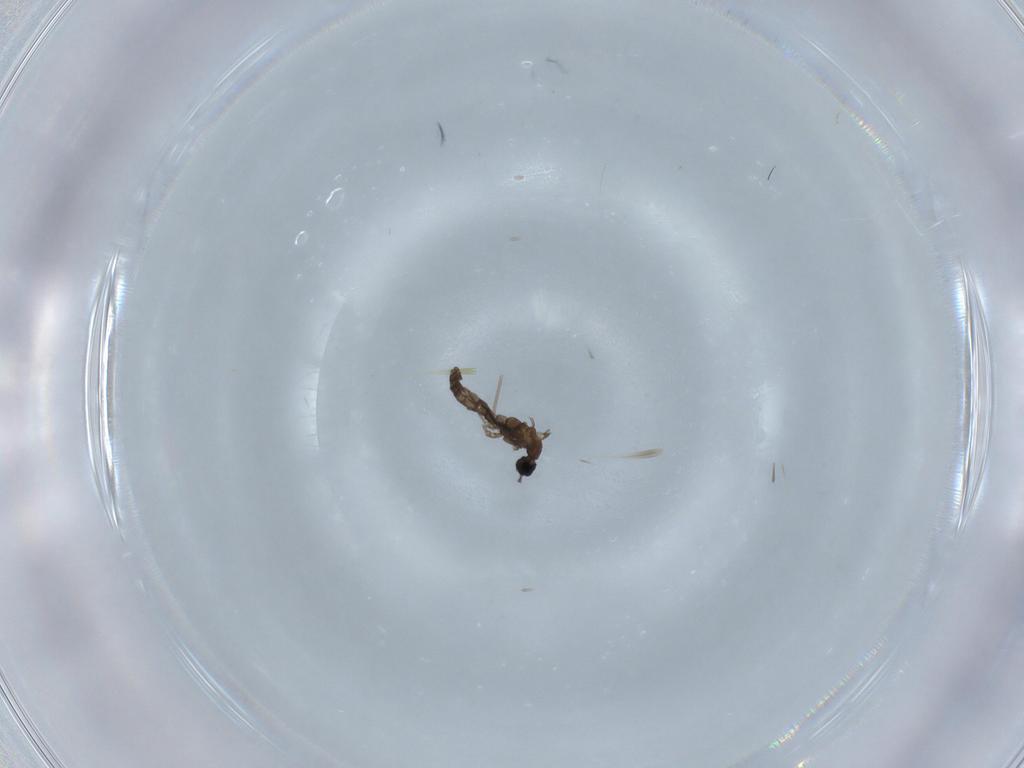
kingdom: Animalia
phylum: Arthropoda
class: Insecta
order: Diptera
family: Cecidomyiidae
